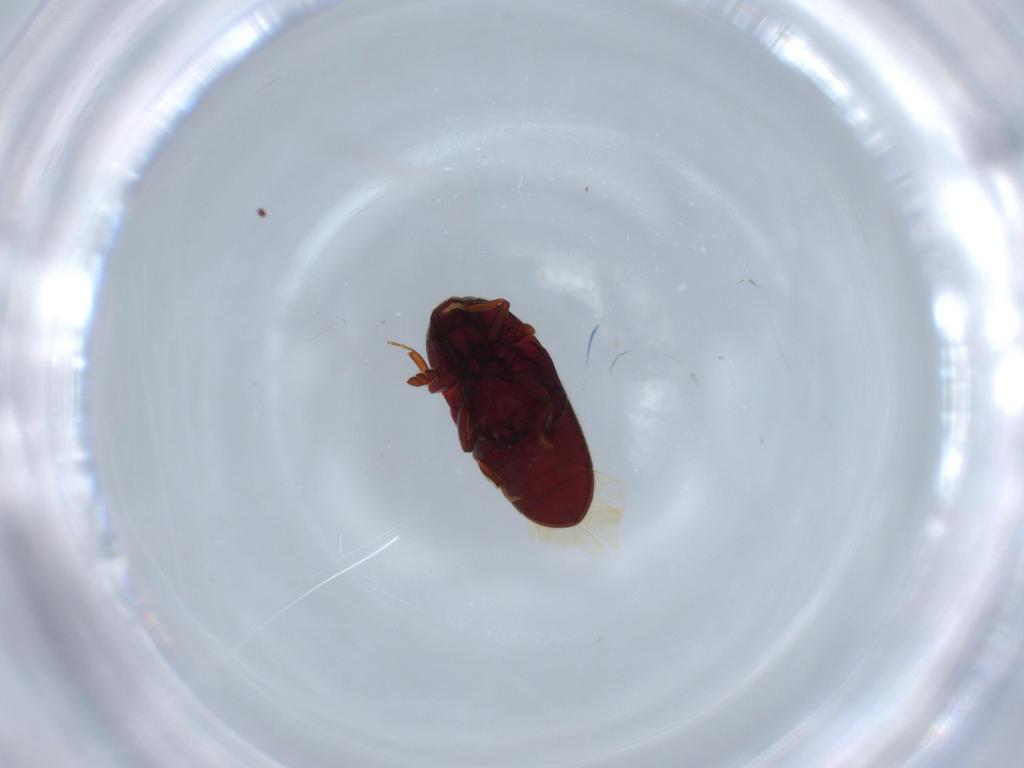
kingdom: Animalia
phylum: Arthropoda
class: Insecta
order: Coleoptera
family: Throscidae
